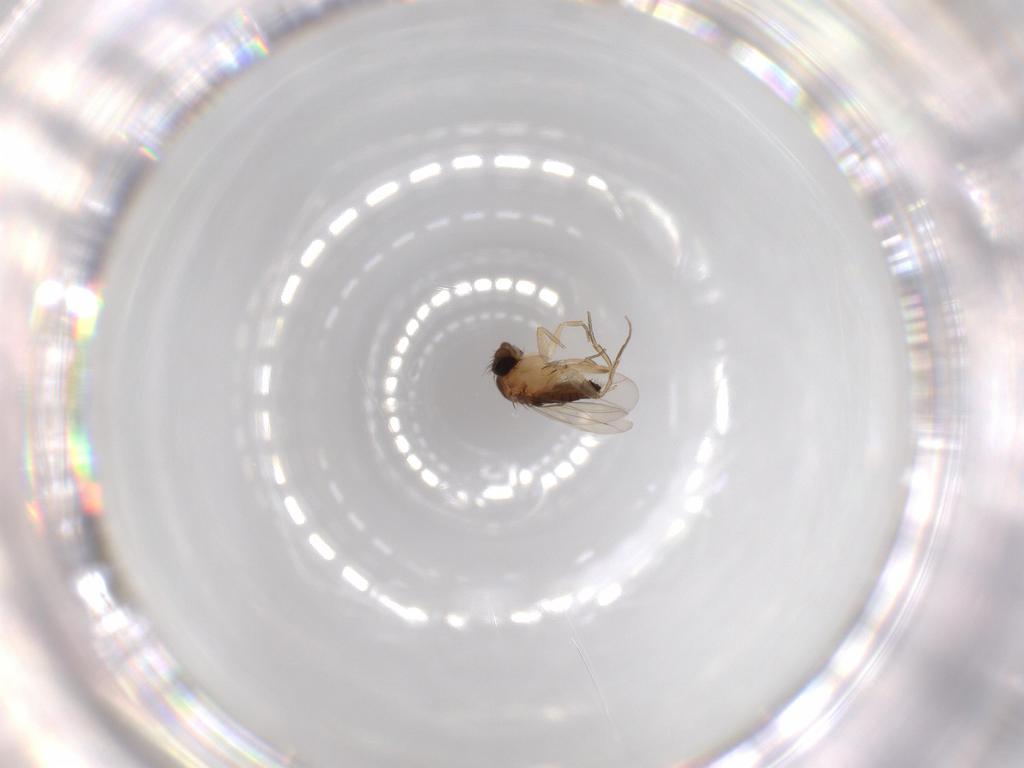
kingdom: Animalia
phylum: Arthropoda
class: Insecta
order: Diptera
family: Phoridae
